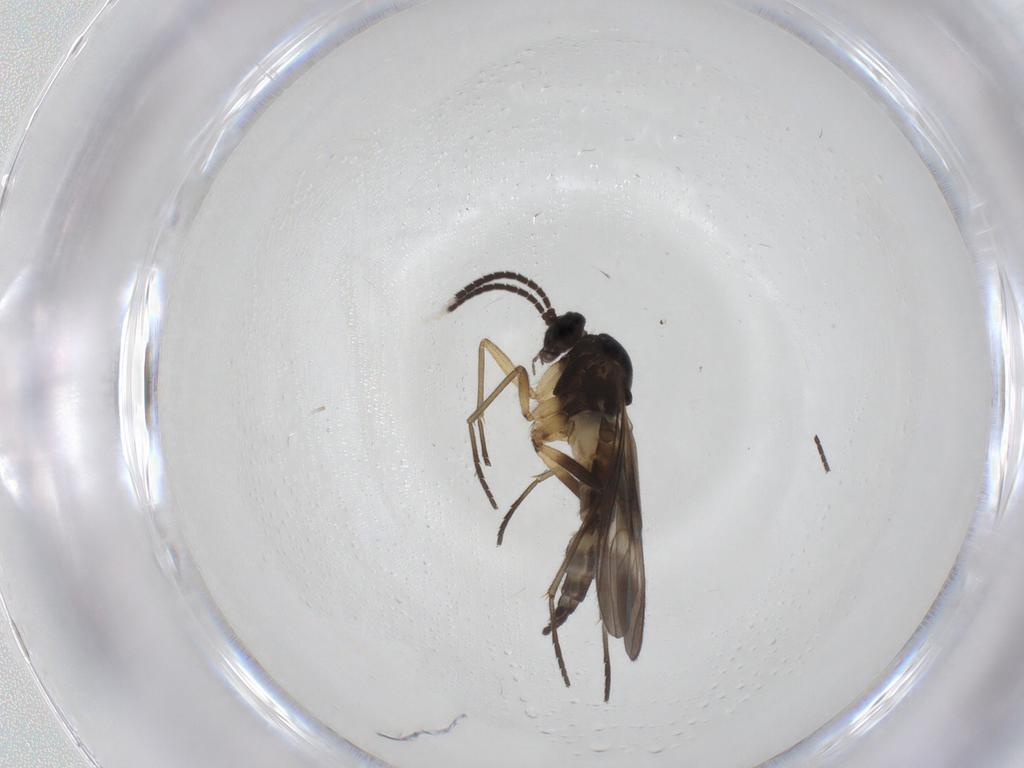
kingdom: Animalia
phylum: Arthropoda
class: Insecta
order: Diptera
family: Sciaridae
